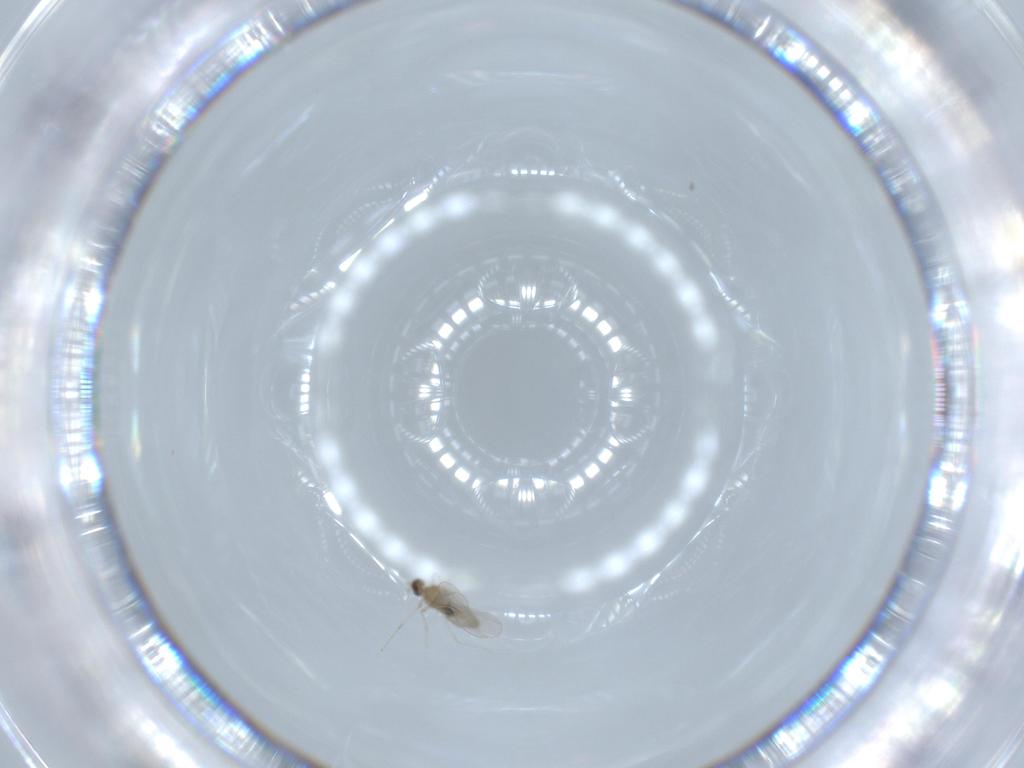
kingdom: Animalia
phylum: Arthropoda
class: Insecta
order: Diptera
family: Cecidomyiidae
